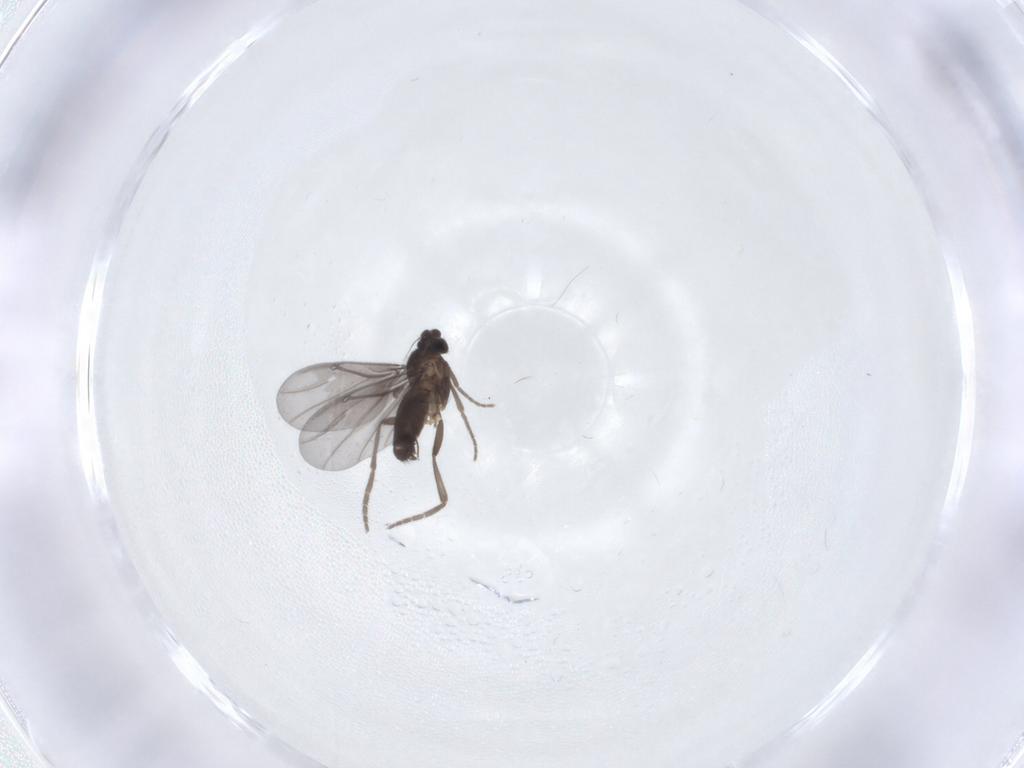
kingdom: Animalia
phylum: Arthropoda
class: Insecta
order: Diptera
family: Phoridae
